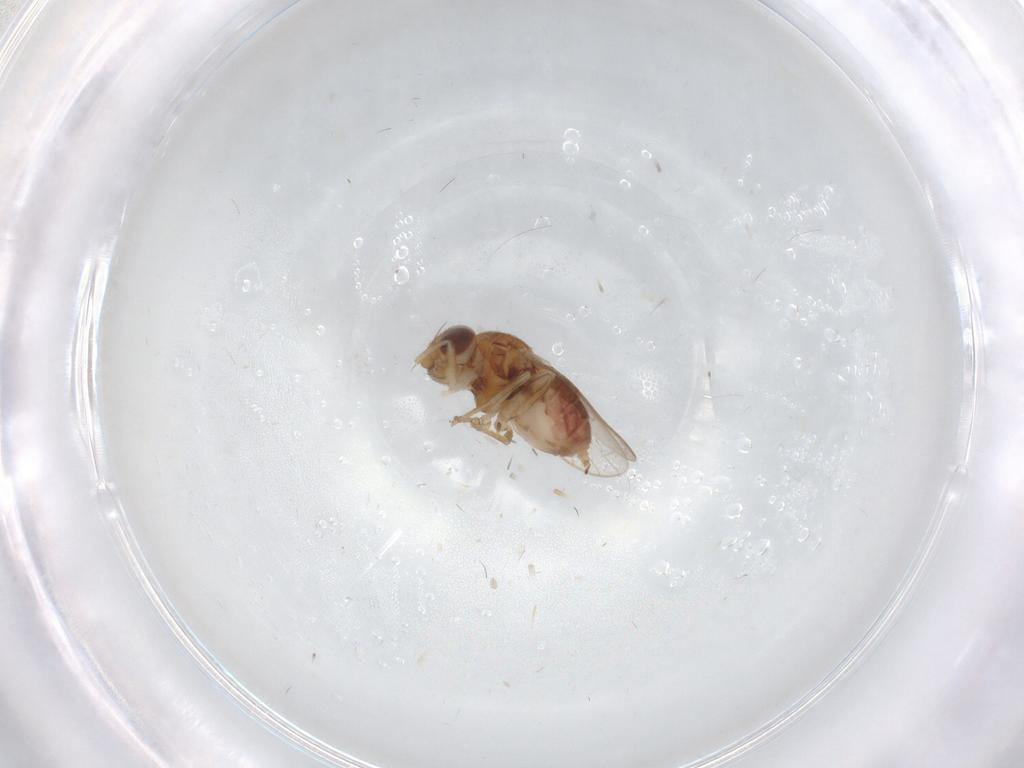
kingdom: Animalia
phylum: Arthropoda
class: Insecta
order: Diptera
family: Chloropidae
